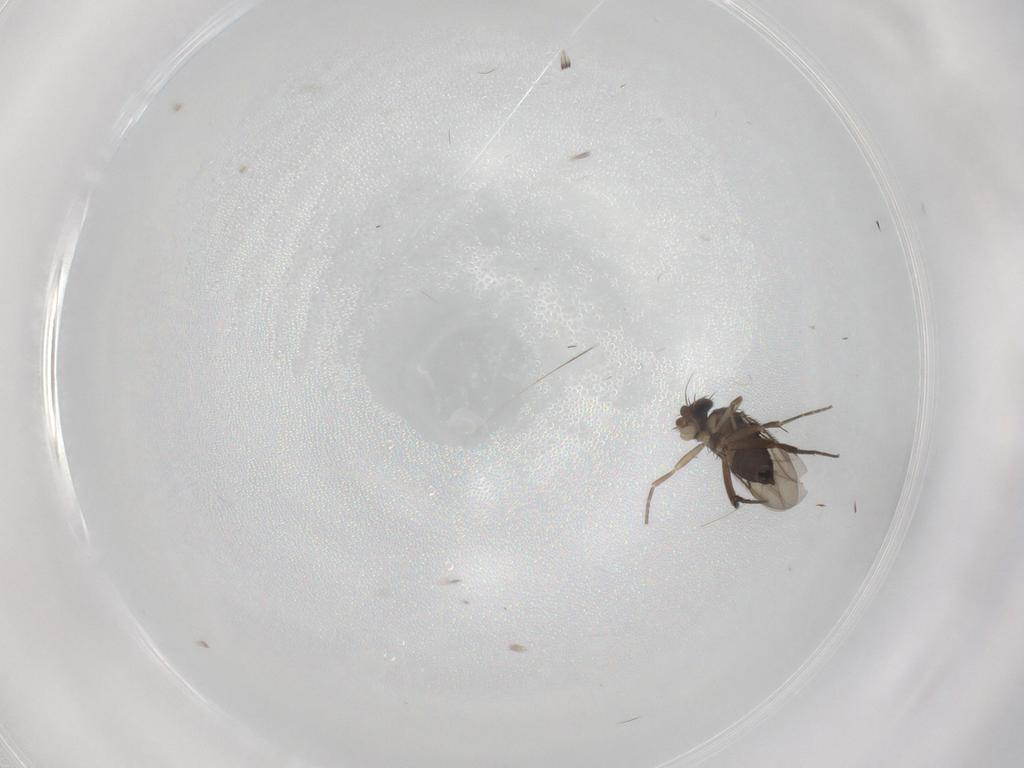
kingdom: Animalia
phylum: Arthropoda
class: Insecta
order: Diptera
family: Phoridae
